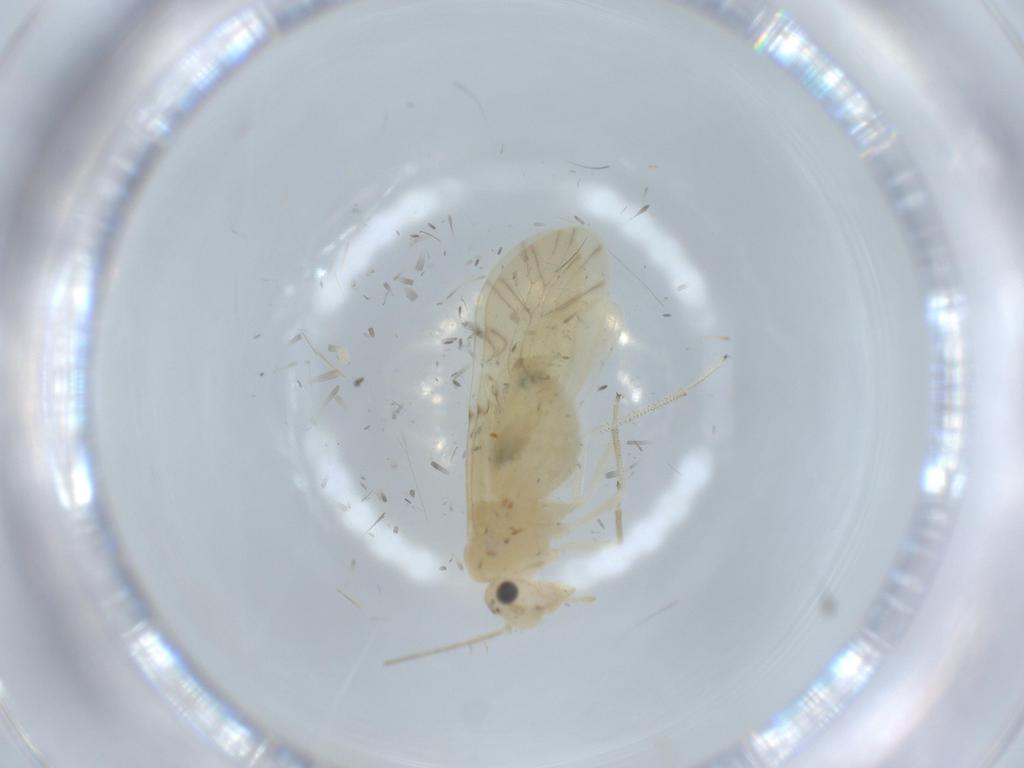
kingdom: Animalia
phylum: Arthropoda
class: Insecta
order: Psocodea
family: Caeciliusidae
